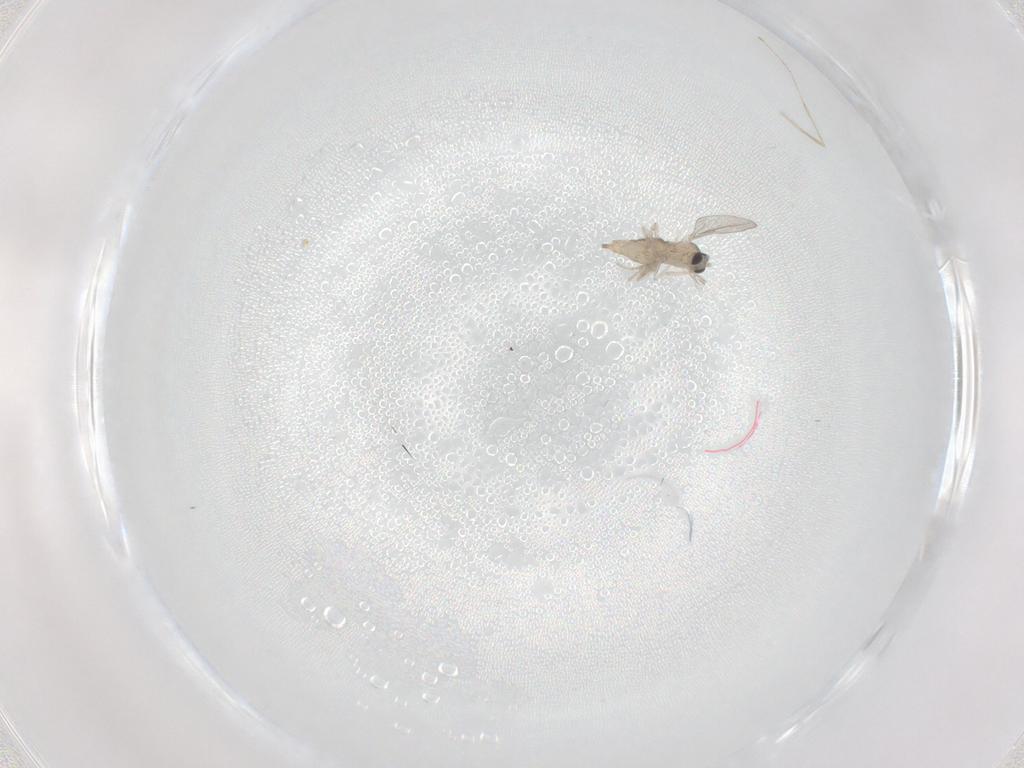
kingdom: Animalia
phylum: Arthropoda
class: Insecta
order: Diptera
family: Cecidomyiidae
